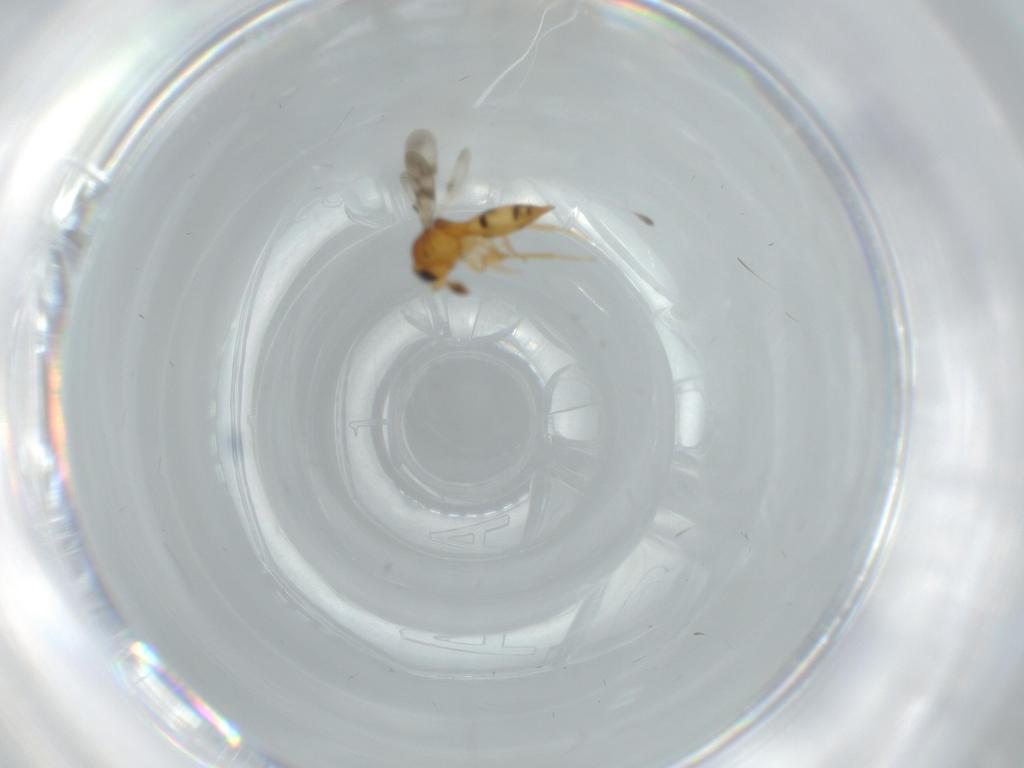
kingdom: Animalia
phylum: Arthropoda
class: Insecta
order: Hymenoptera
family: Scelionidae
